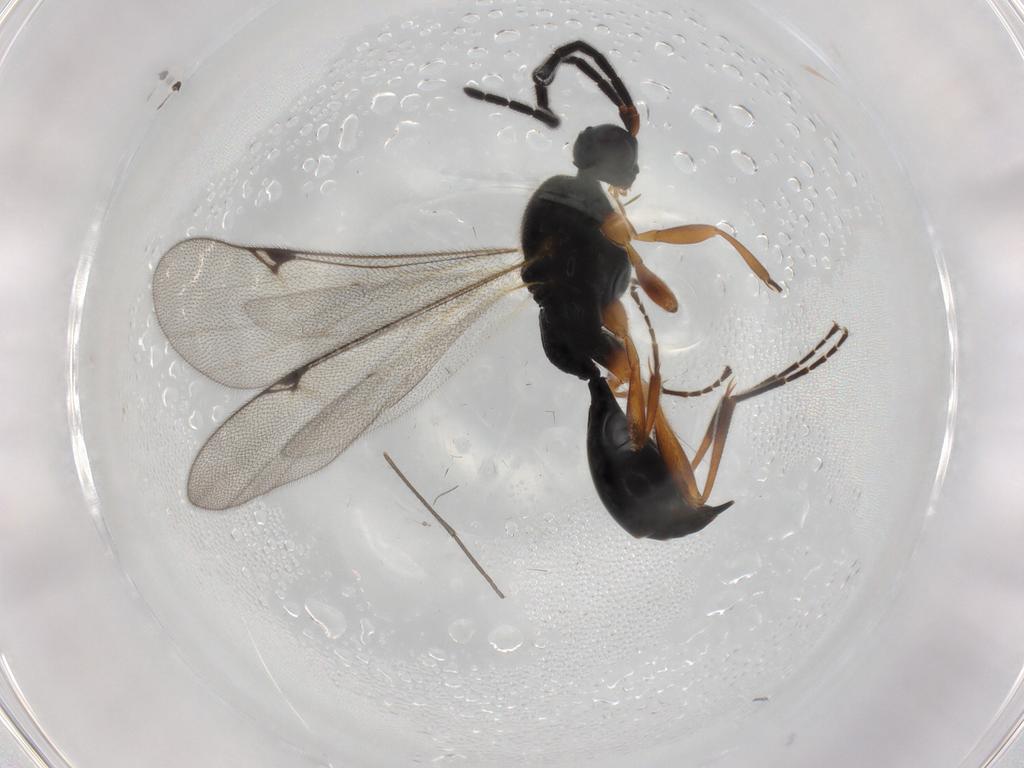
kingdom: Animalia
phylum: Arthropoda
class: Insecta
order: Hymenoptera
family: Proctotrupidae
